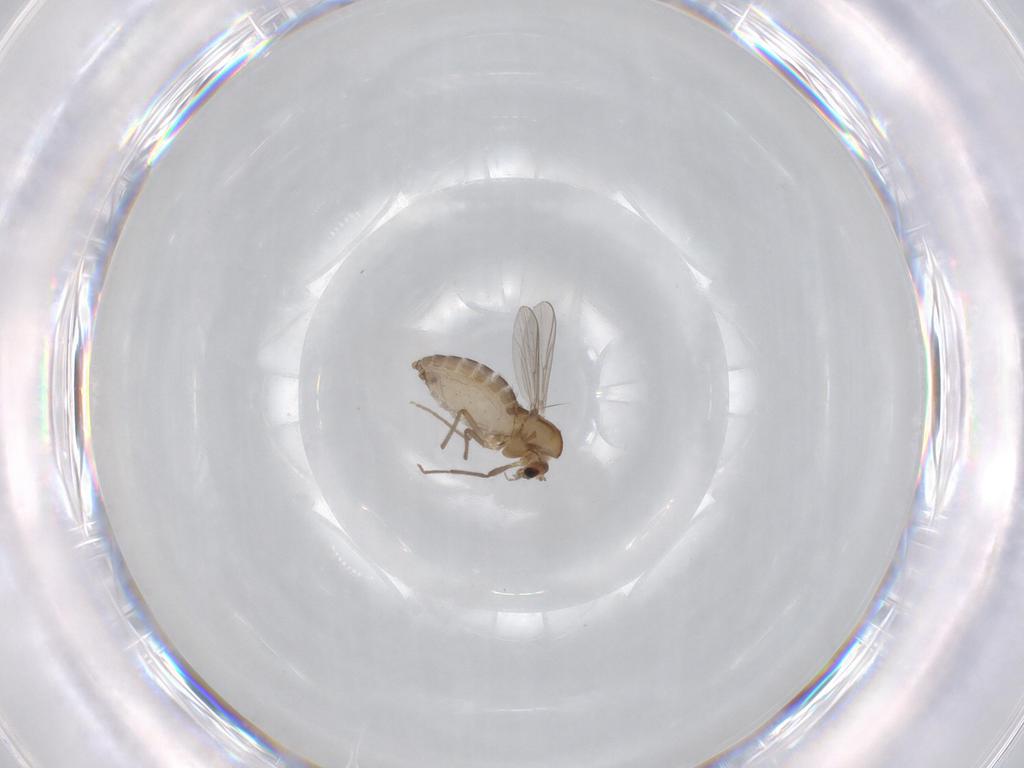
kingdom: Animalia
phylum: Arthropoda
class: Insecta
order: Diptera
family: Chironomidae
